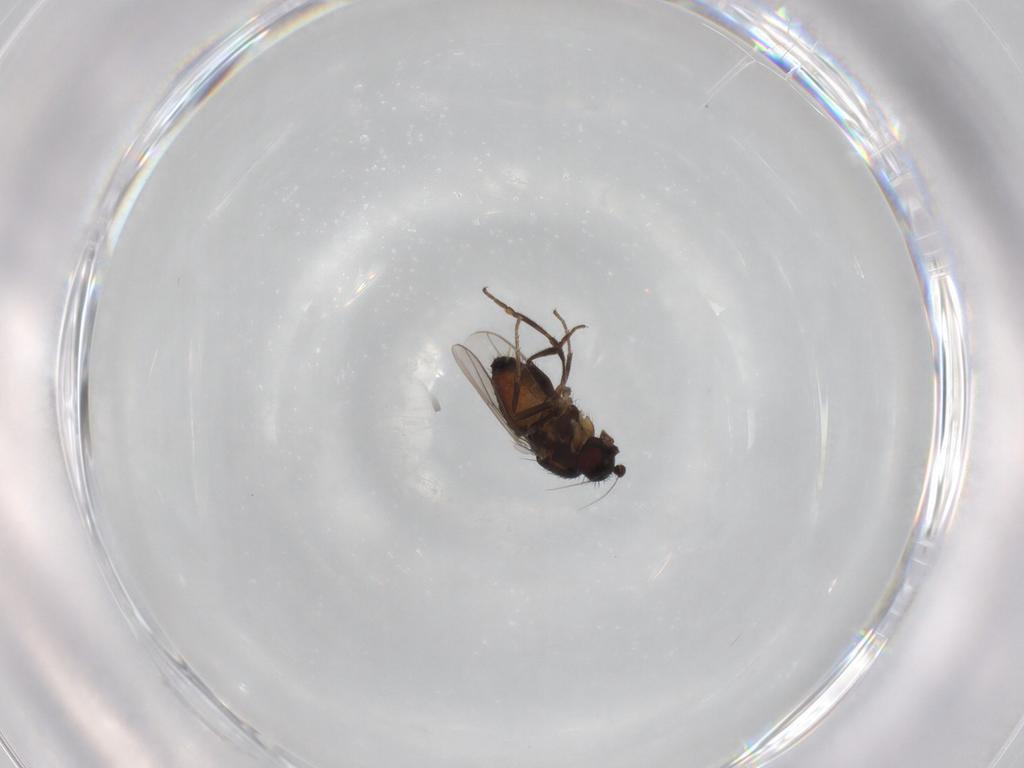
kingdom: Animalia
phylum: Arthropoda
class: Insecta
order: Diptera
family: Sphaeroceridae
